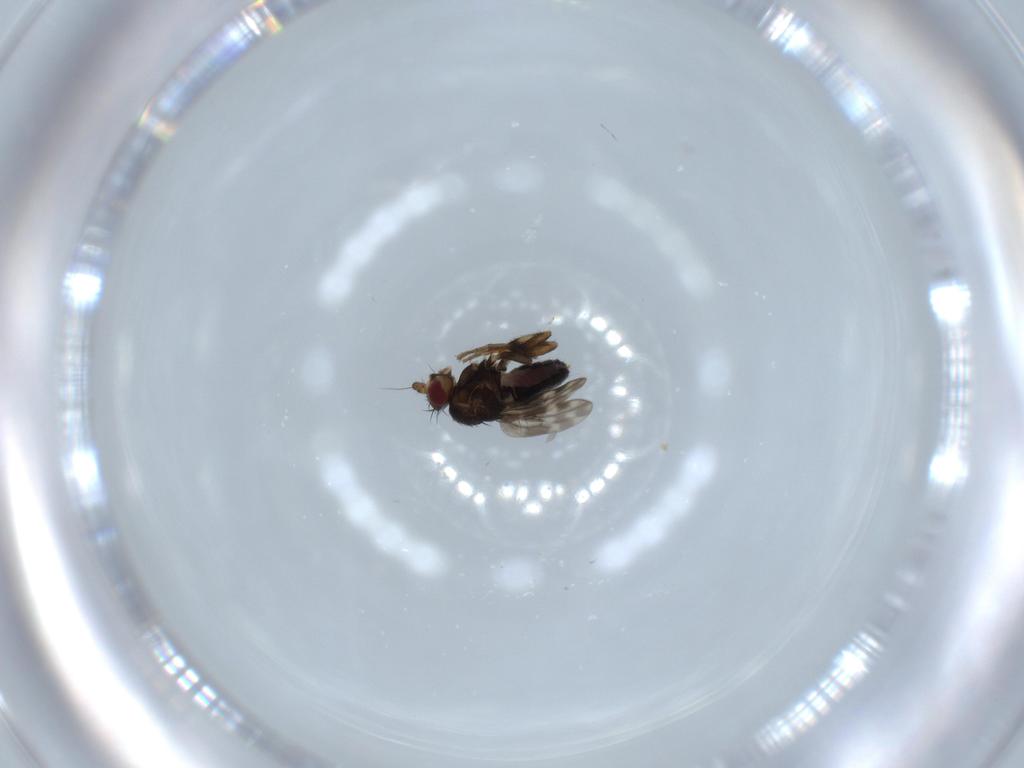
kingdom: Animalia
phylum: Arthropoda
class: Insecta
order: Diptera
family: Sphaeroceridae
